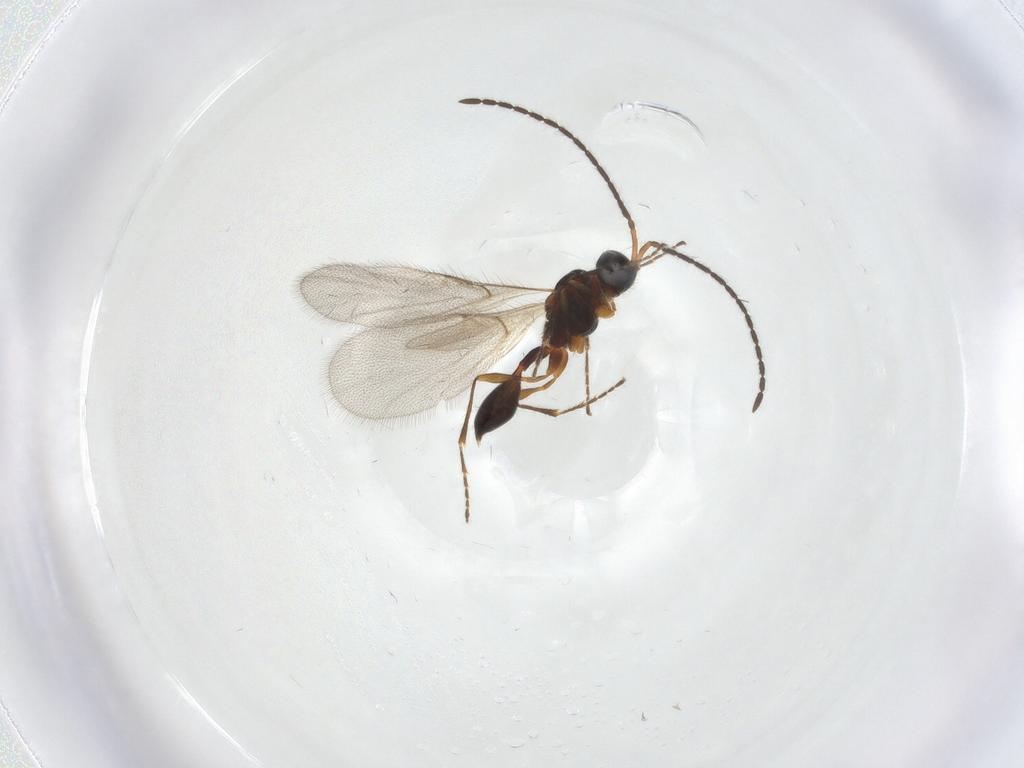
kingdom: Animalia
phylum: Arthropoda
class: Insecta
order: Hymenoptera
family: Diapriidae
